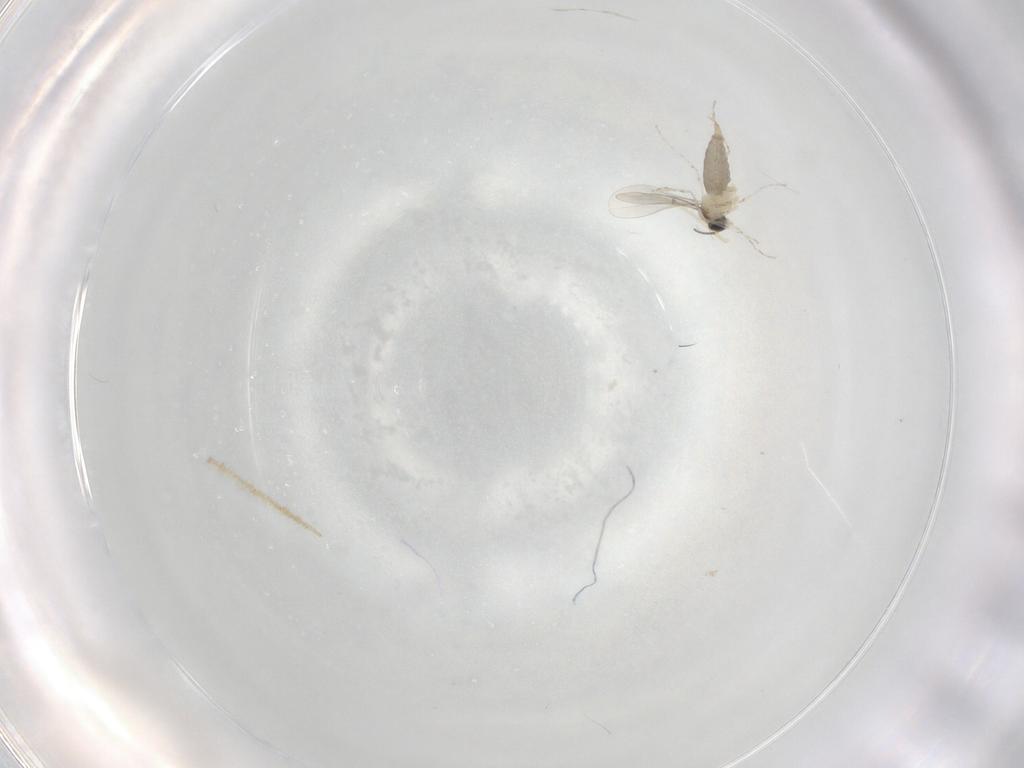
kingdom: Animalia
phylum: Arthropoda
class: Insecta
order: Diptera
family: Cecidomyiidae
